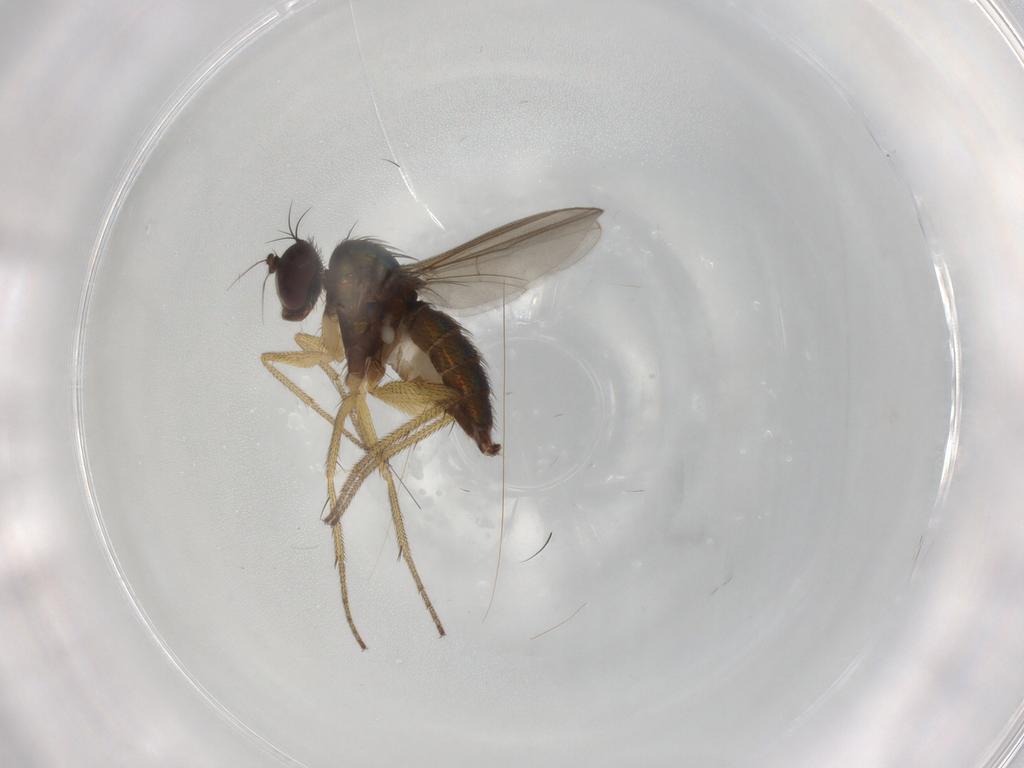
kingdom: Animalia
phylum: Arthropoda
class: Insecta
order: Diptera
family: Dolichopodidae
